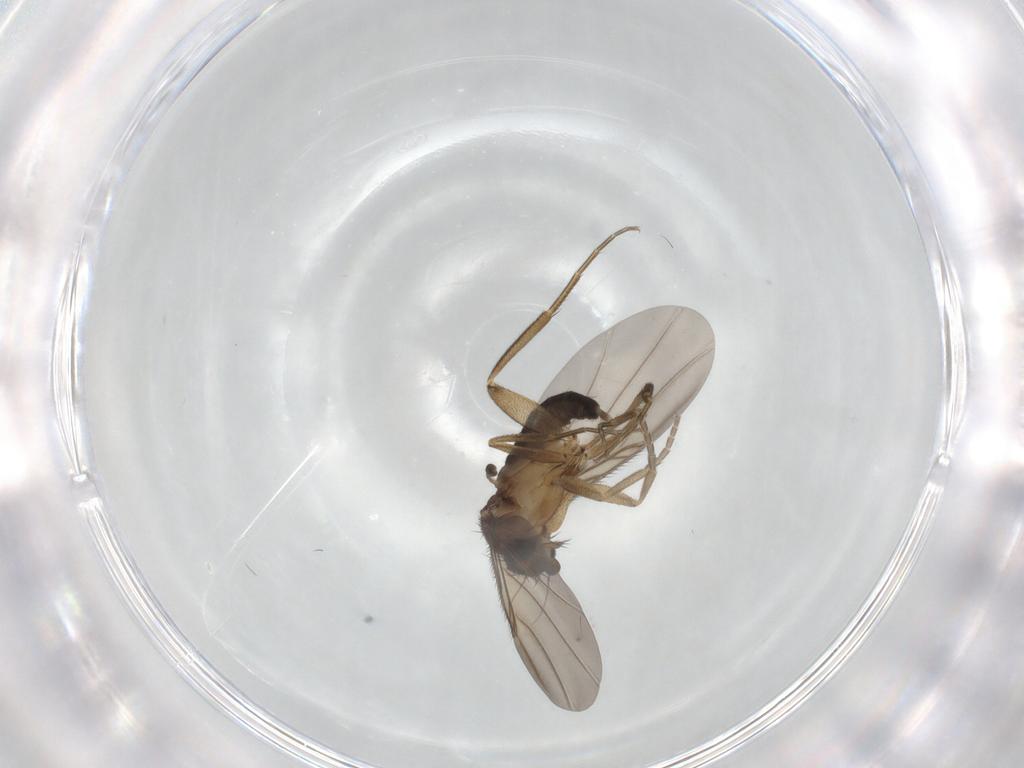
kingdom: Animalia
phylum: Arthropoda
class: Insecta
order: Diptera
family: Chironomidae
